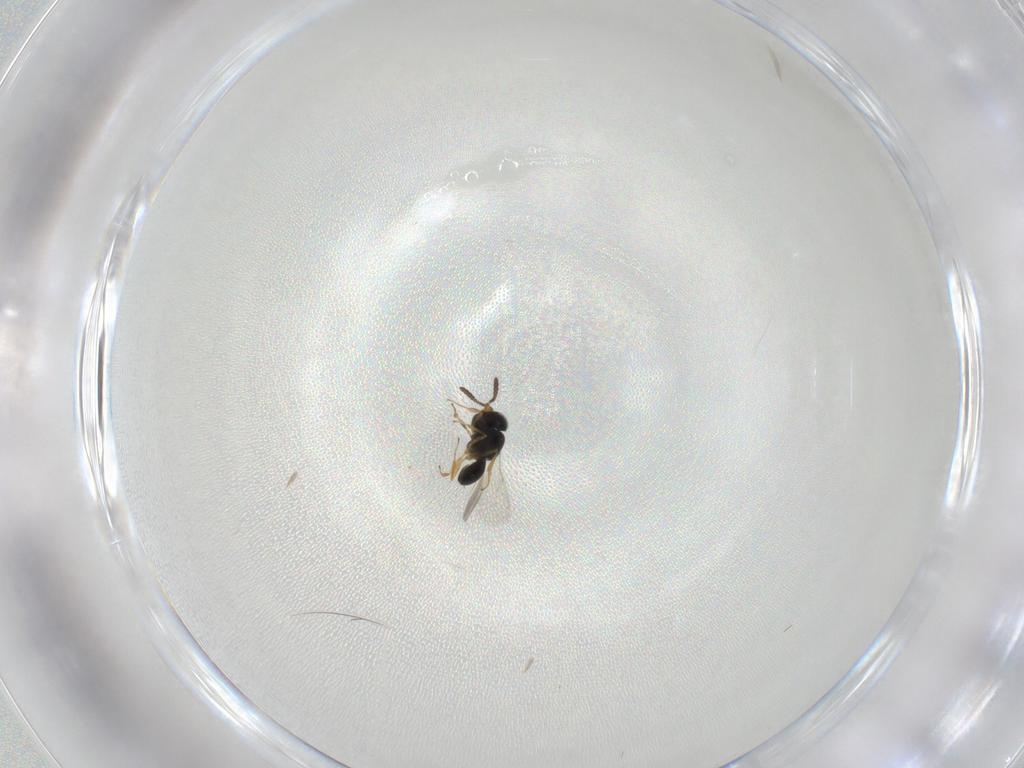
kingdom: Animalia
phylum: Arthropoda
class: Insecta
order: Hymenoptera
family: Scelionidae
